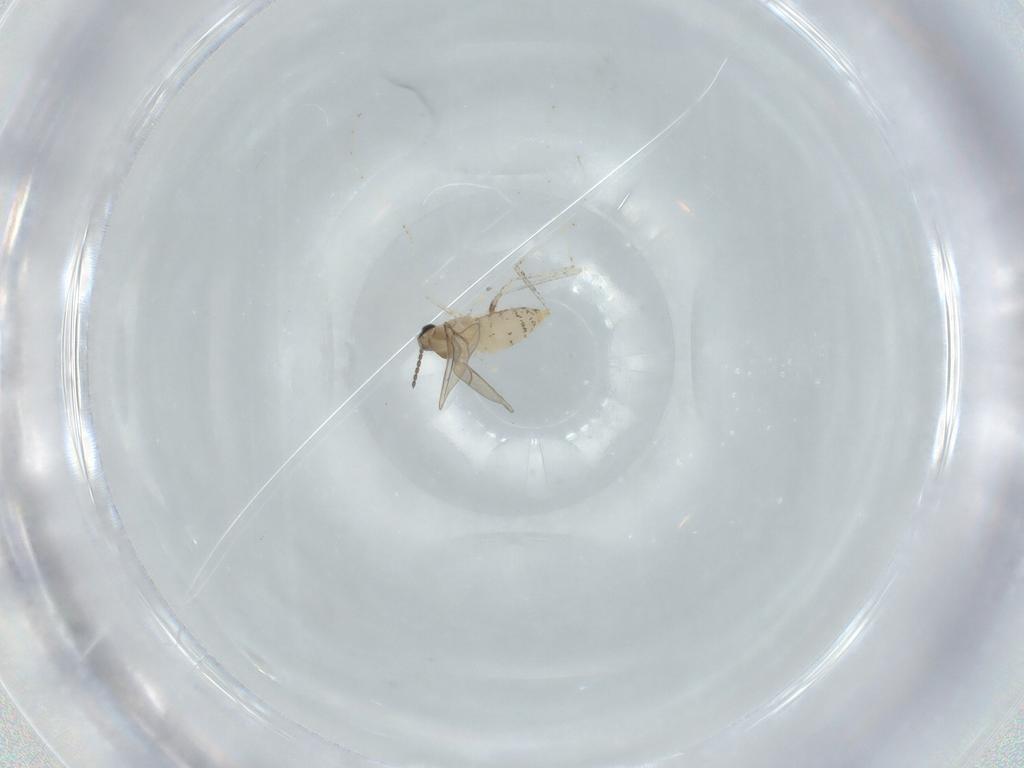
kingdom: Animalia
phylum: Arthropoda
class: Insecta
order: Diptera
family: Cecidomyiidae
